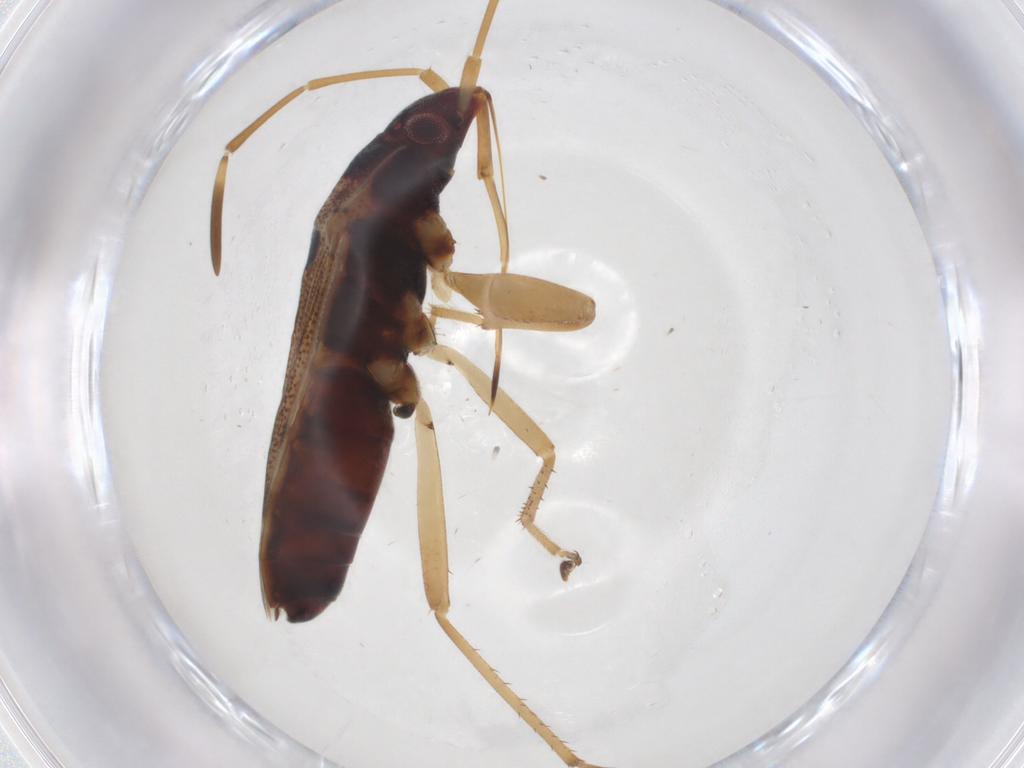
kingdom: Animalia
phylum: Arthropoda
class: Insecta
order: Hemiptera
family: Rhyparochromidae
